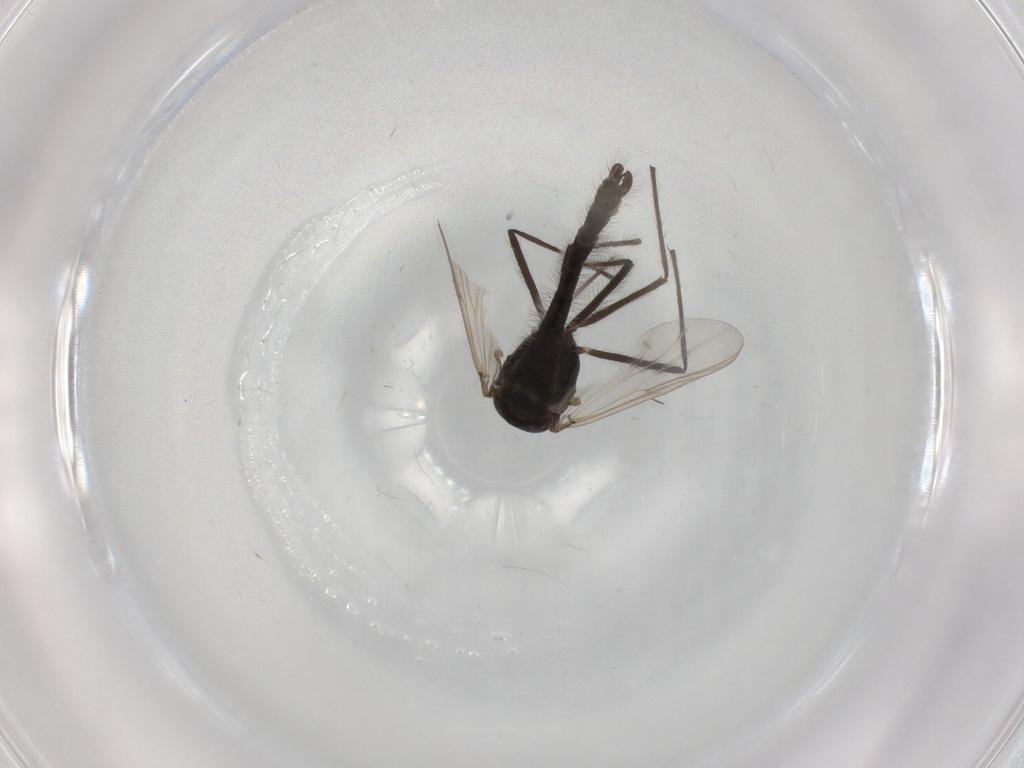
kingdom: Animalia
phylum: Arthropoda
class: Insecta
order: Diptera
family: Chironomidae
